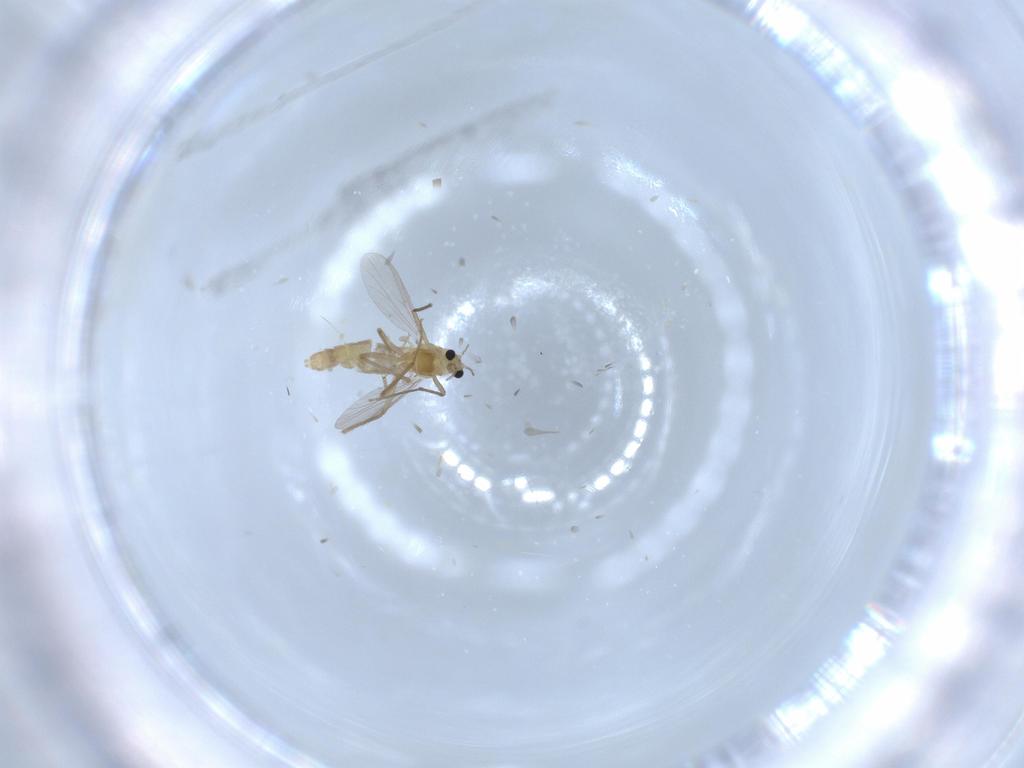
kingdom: Animalia
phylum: Arthropoda
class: Insecta
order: Diptera
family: Chironomidae
